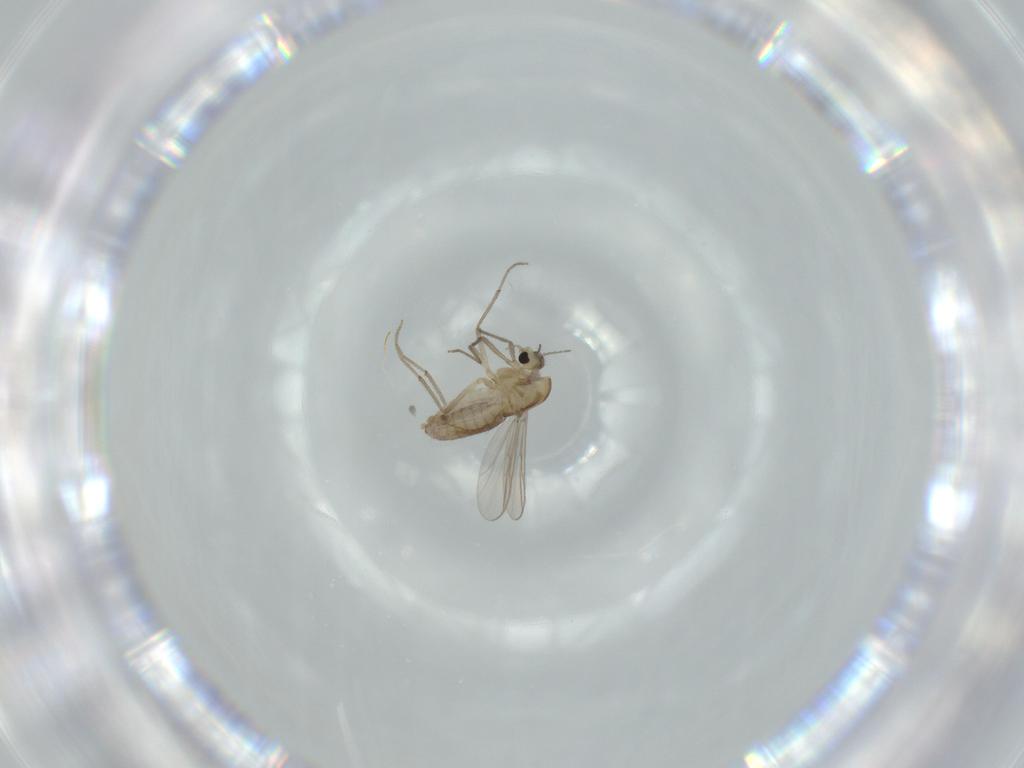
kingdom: Animalia
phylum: Arthropoda
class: Insecta
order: Diptera
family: Chironomidae
